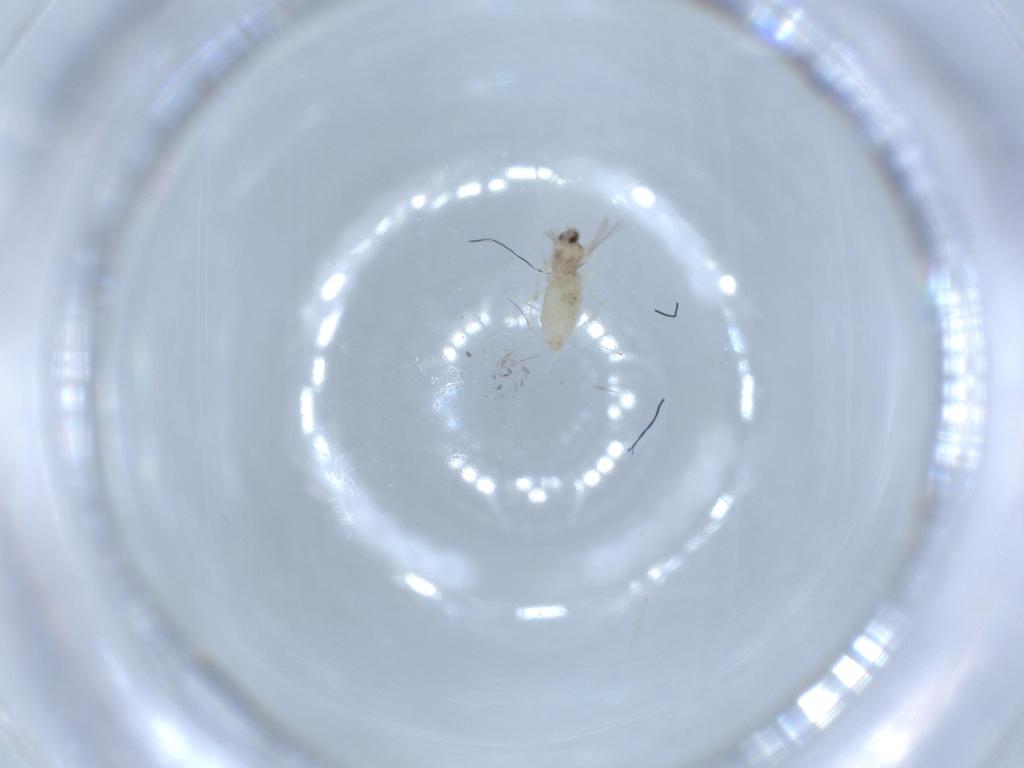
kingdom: Animalia
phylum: Arthropoda
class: Insecta
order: Diptera
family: Cecidomyiidae
